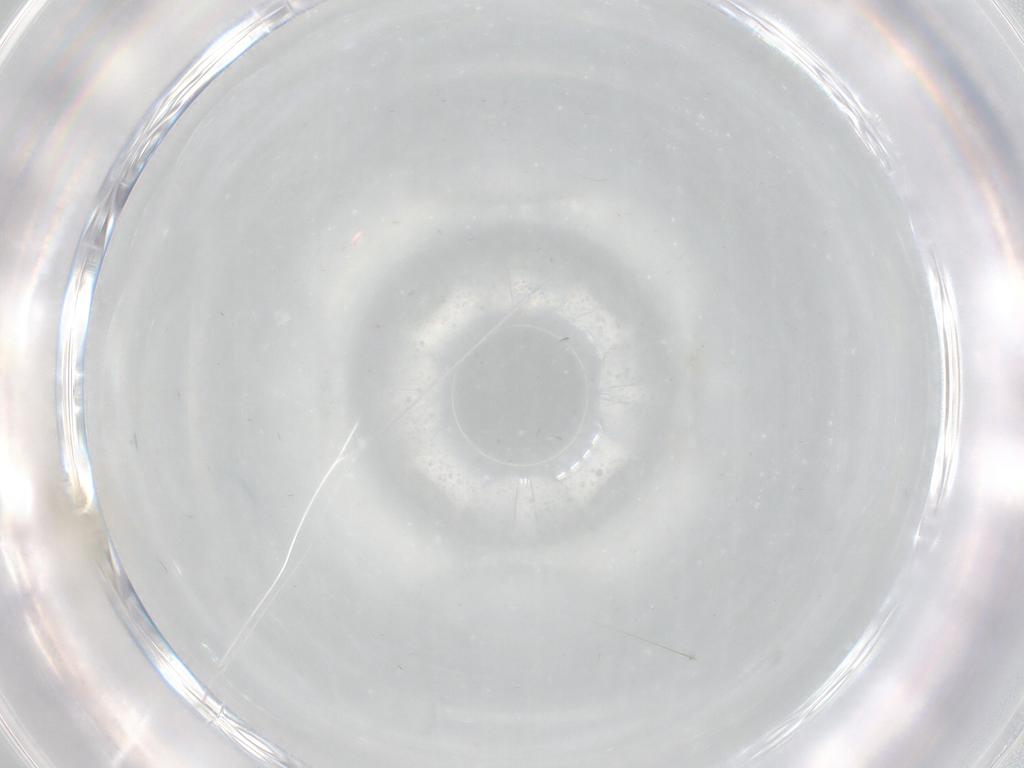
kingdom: Animalia
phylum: Arthropoda
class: Insecta
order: Diptera
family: Cecidomyiidae
